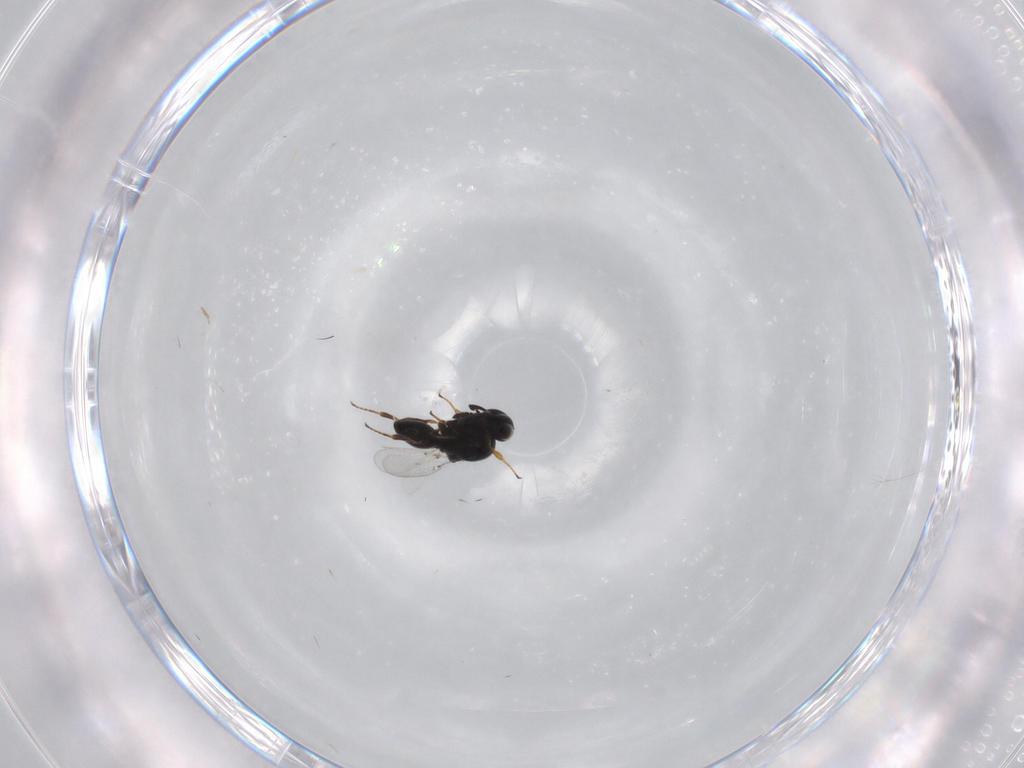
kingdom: Animalia
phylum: Arthropoda
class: Insecta
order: Hymenoptera
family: Platygastridae
